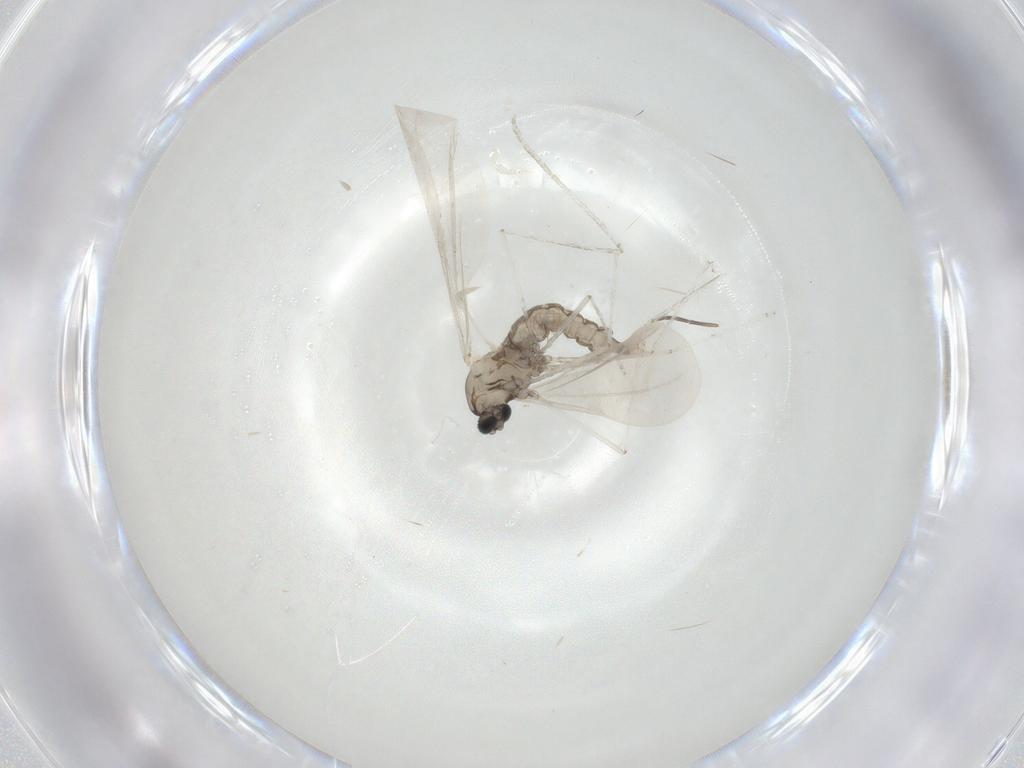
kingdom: Animalia
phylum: Arthropoda
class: Insecta
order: Diptera
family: Cecidomyiidae
